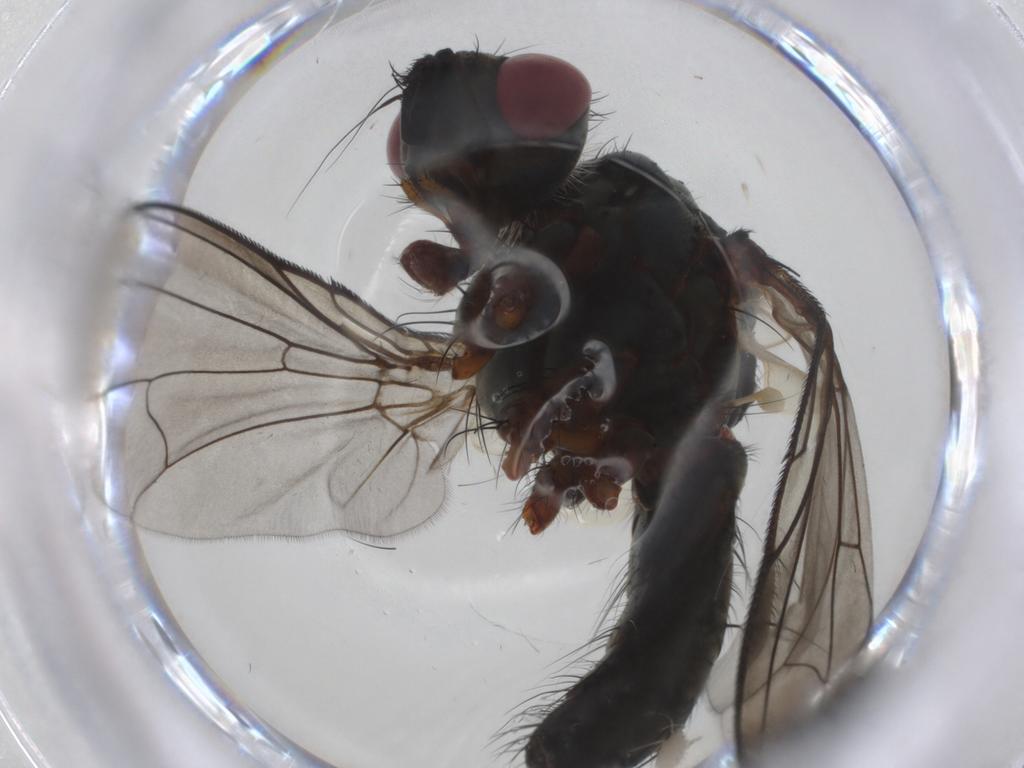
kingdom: Animalia
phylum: Arthropoda
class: Insecta
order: Diptera
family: Tachinidae
